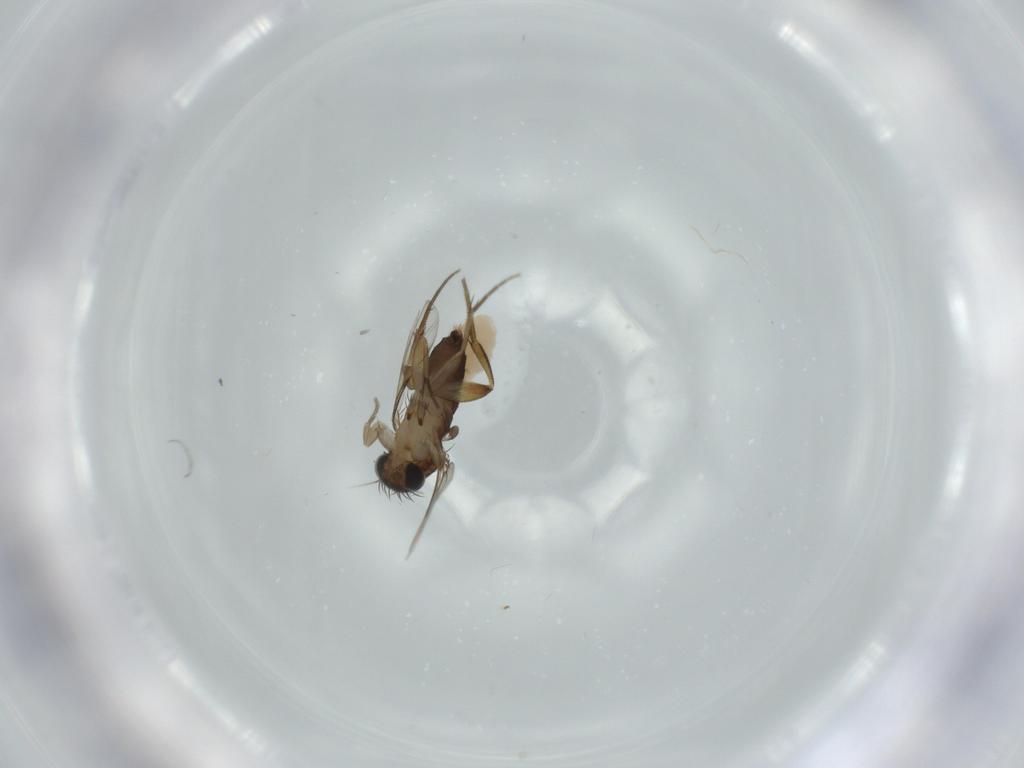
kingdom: Animalia
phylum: Arthropoda
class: Insecta
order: Diptera
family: Phoridae
